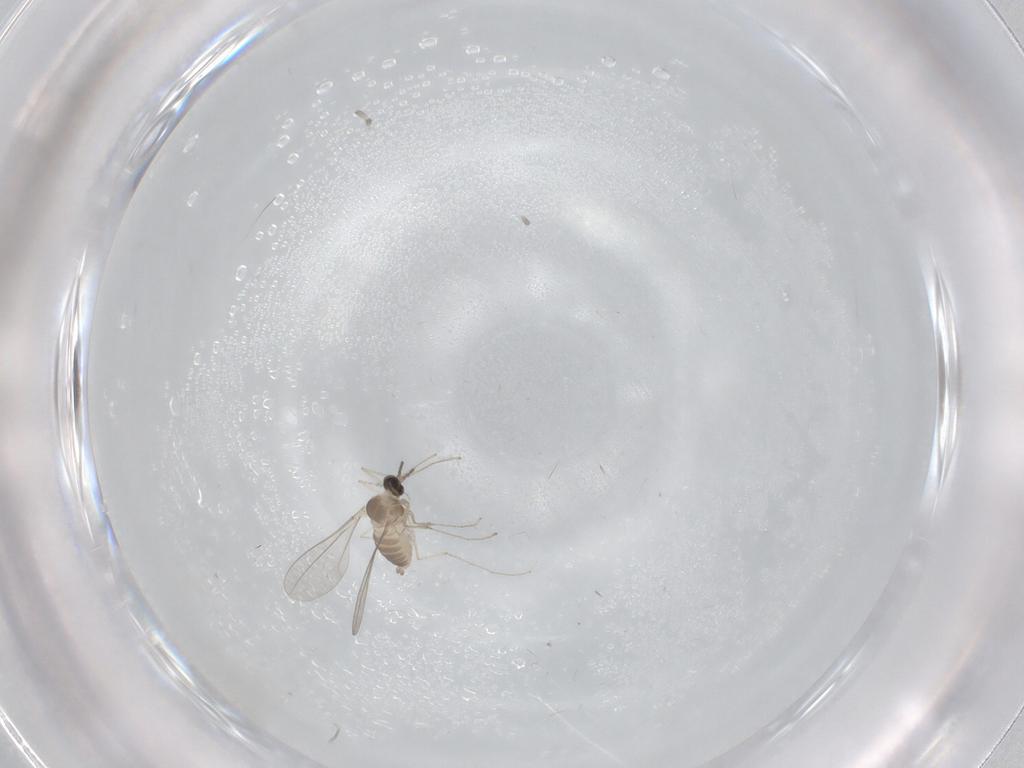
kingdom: Animalia
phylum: Arthropoda
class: Insecta
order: Diptera
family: Cecidomyiidae
